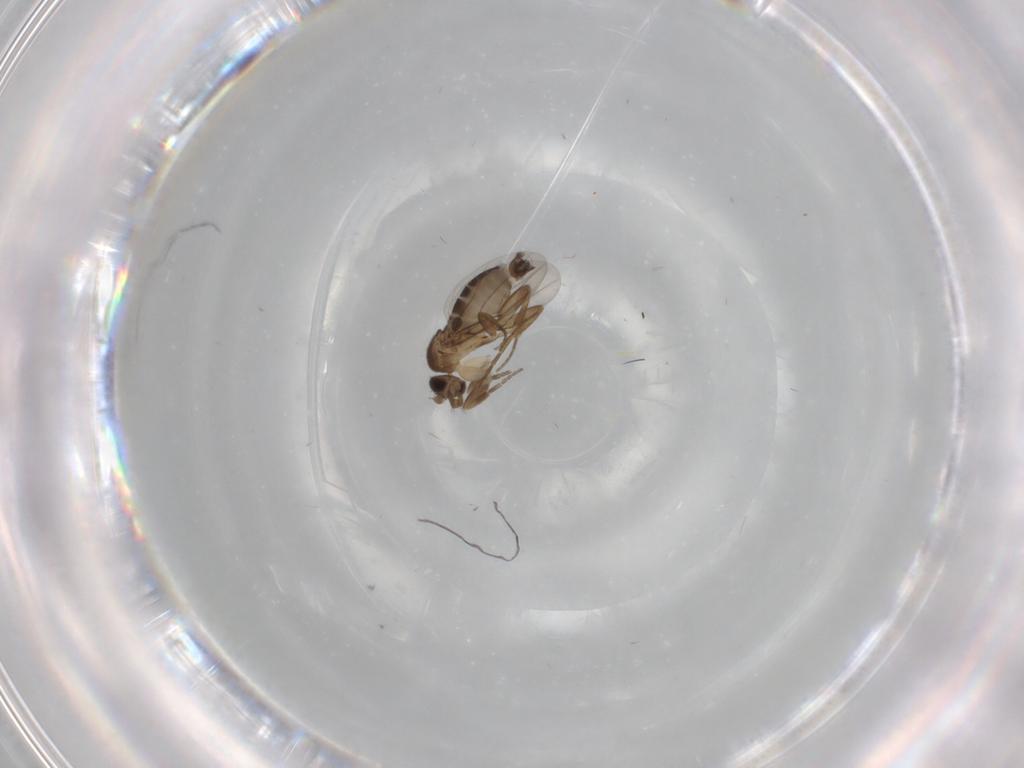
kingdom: Animalia
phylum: Arthropoda
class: Insecta
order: Diptera
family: Phoridae
